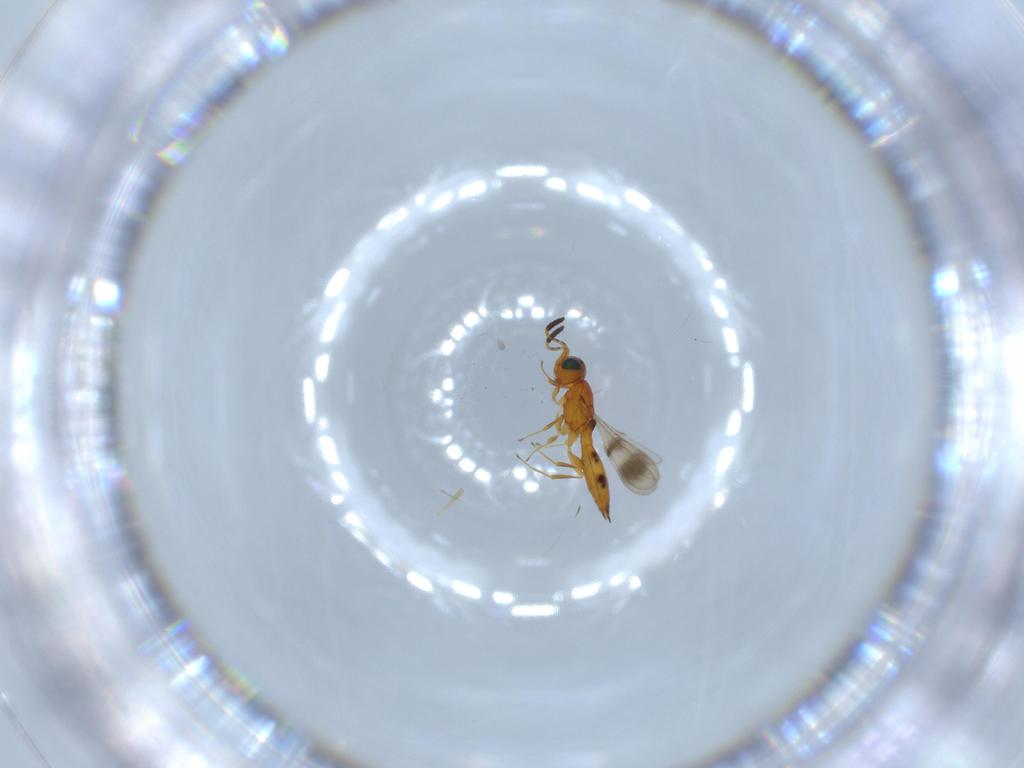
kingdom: Animalia
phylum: Arthropoda
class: Insecta
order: Hymenoptera
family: Scelionidae
